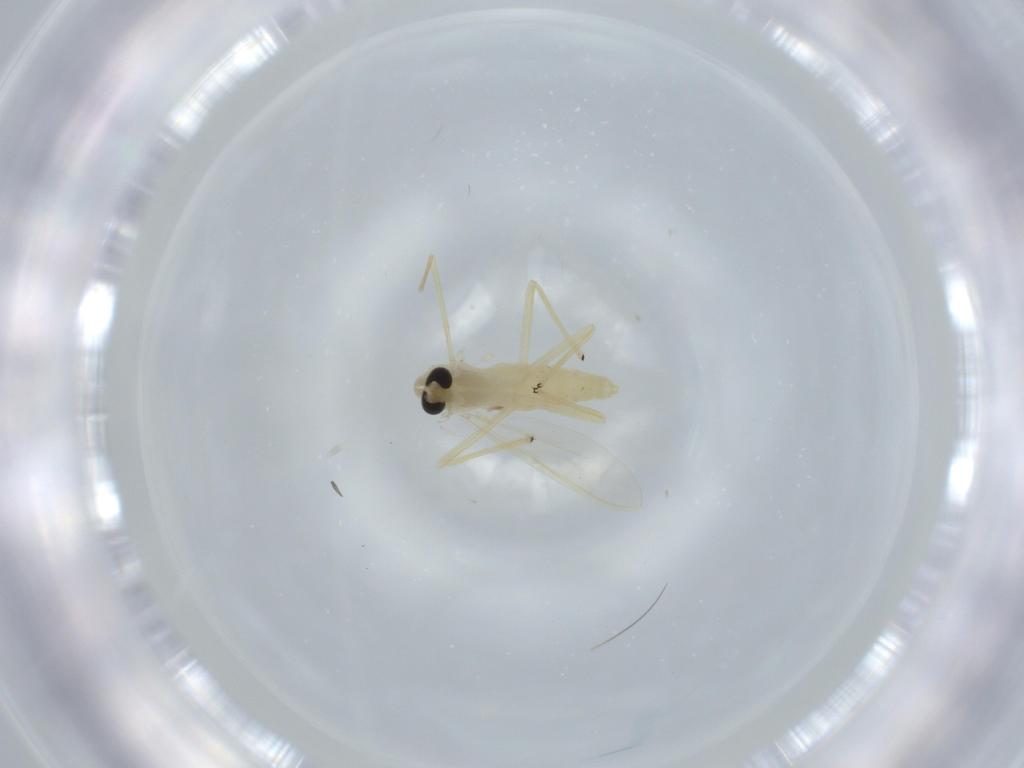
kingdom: Animalia
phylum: Arthropoda
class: Insecta
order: Diptera
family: Chironomidae
